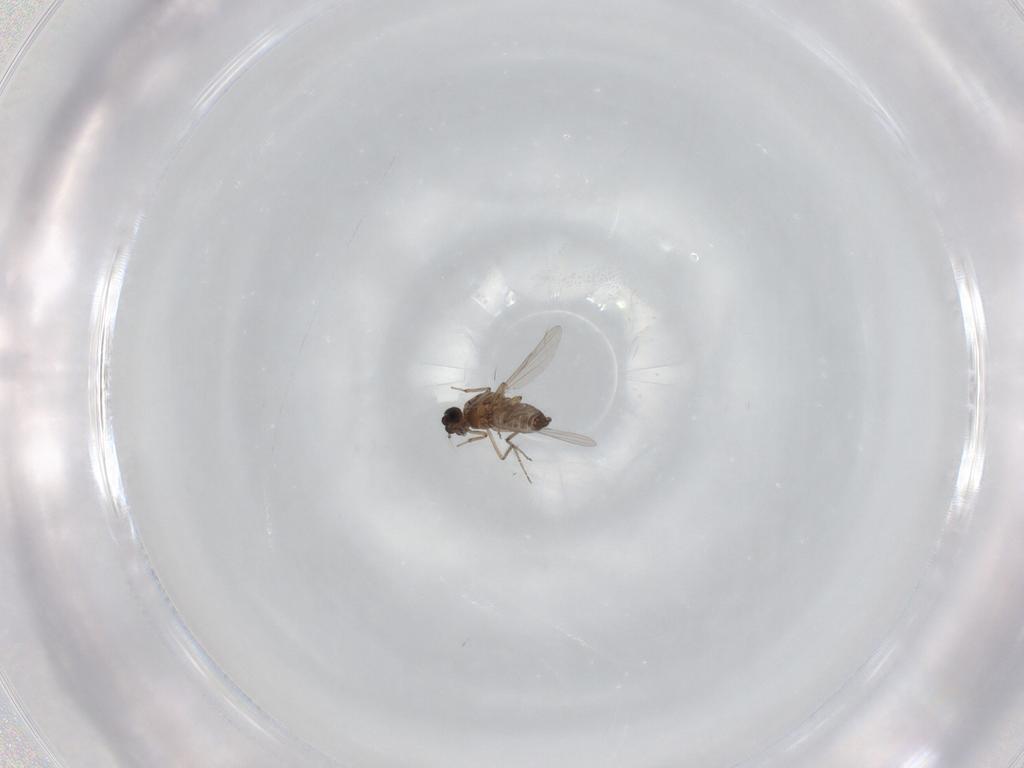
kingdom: Animalia
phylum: Arthropoda
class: Insecta
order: Diptera
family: Ceratopogonidae
